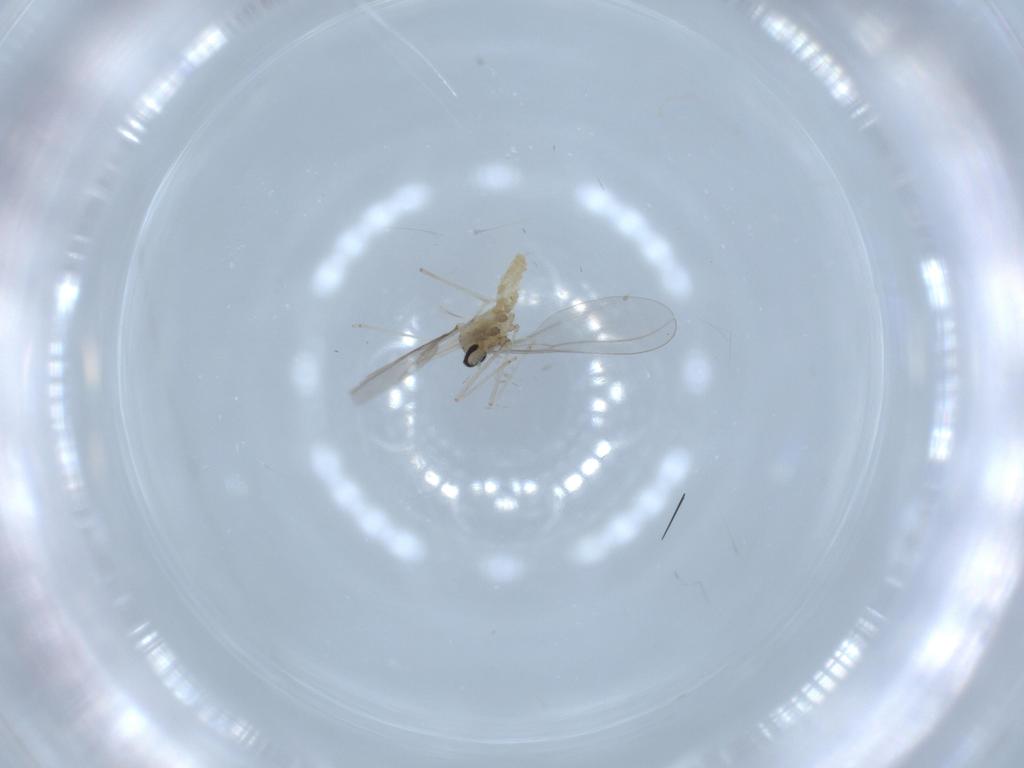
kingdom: Animalia
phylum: Arthropoda
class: Insecta
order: Diptera
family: Cecidomyiidae
